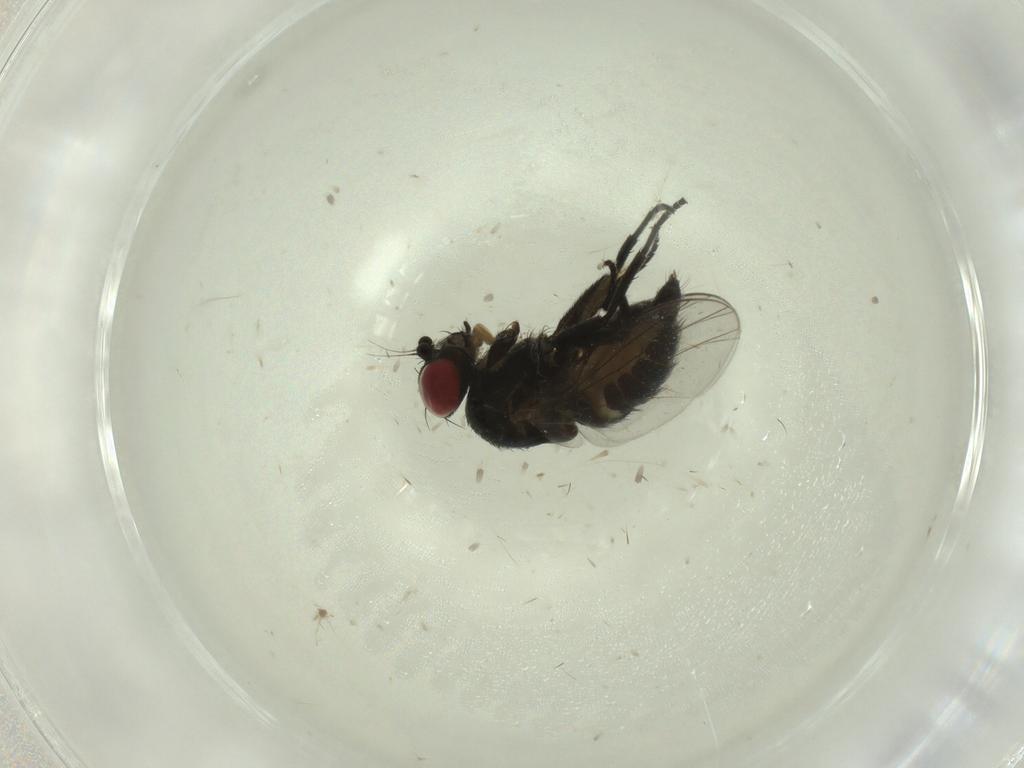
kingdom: Animalia
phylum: Arthropoda
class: Insecta
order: Diptera
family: Agromyzidae
